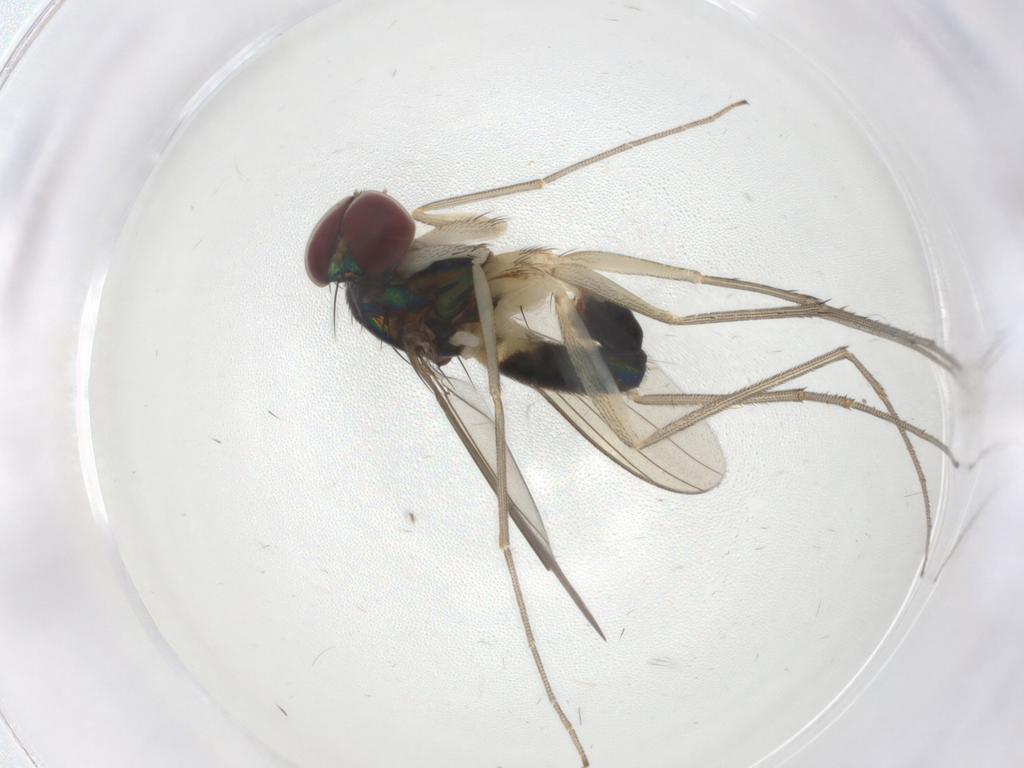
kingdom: Animalia
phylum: Arthropoda
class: Insecta
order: Diptera
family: Dolichopodidae
